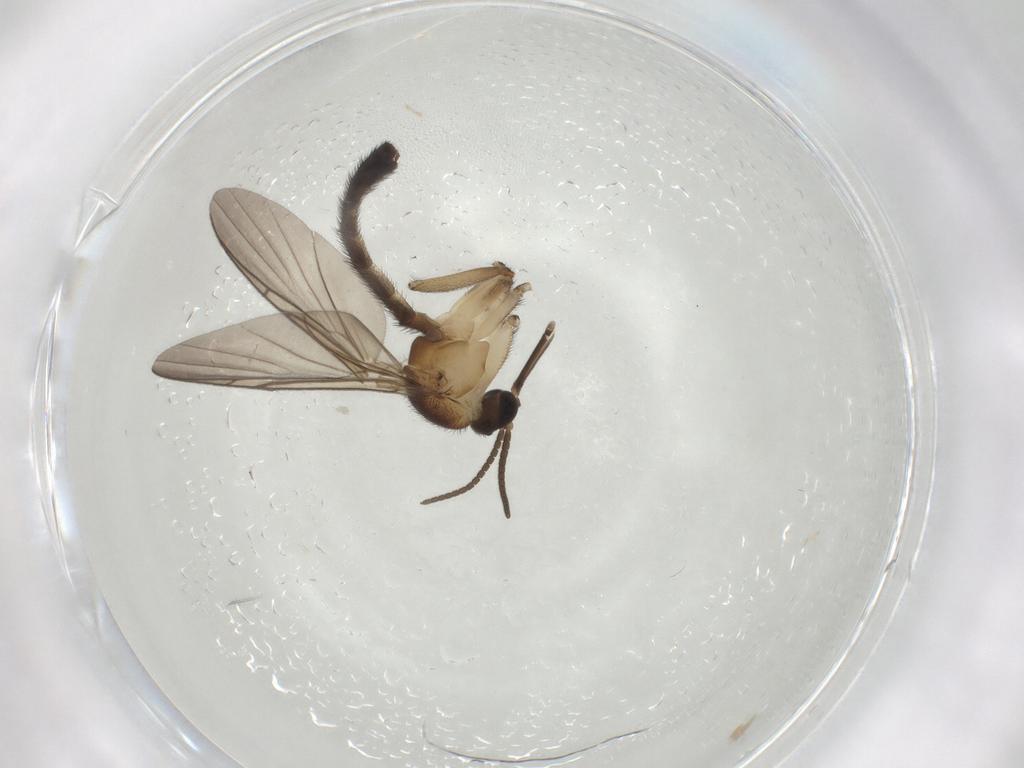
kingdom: Animalia
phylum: Arthropoda
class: Insecta
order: Diptera
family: Keroplatidae
